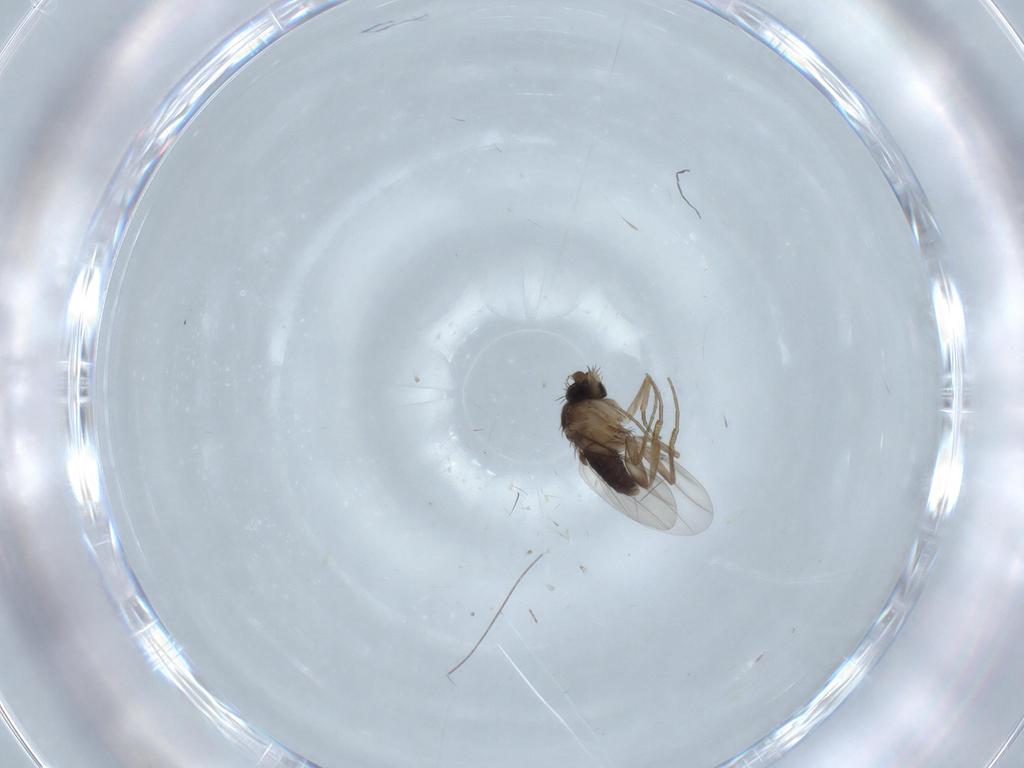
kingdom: Animalia
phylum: Arthropoda
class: Insecta
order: Diptera
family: Phoridae
